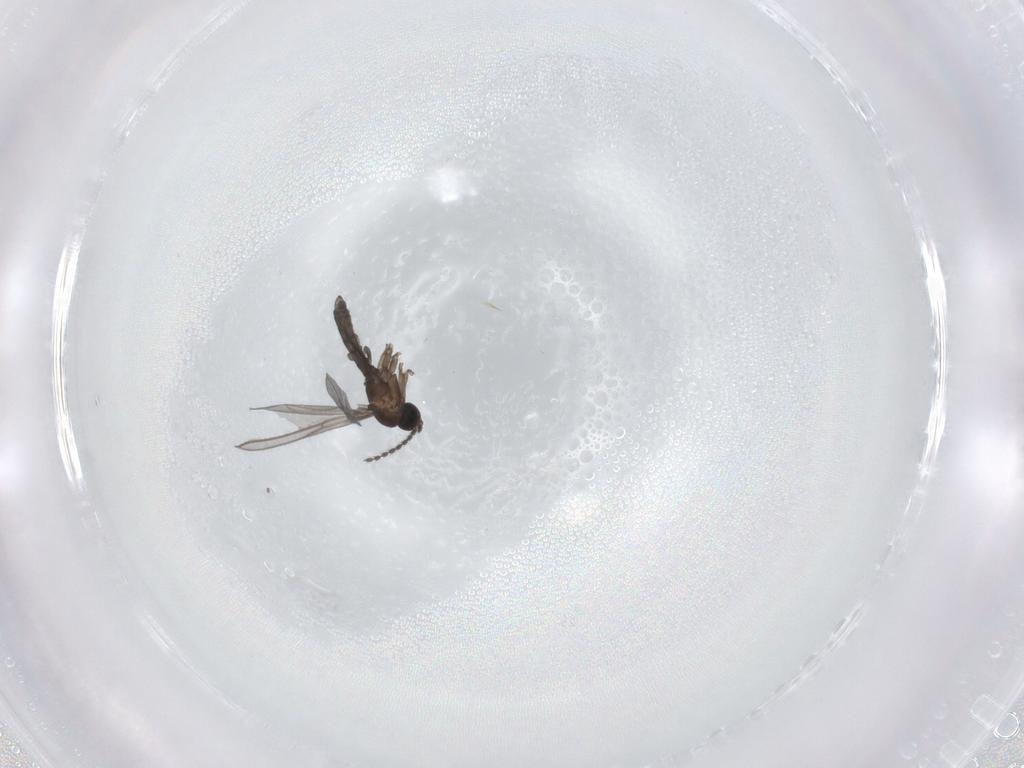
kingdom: Animalia
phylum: Arthropoda
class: Insecta
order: Diptera
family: Sciaridae
